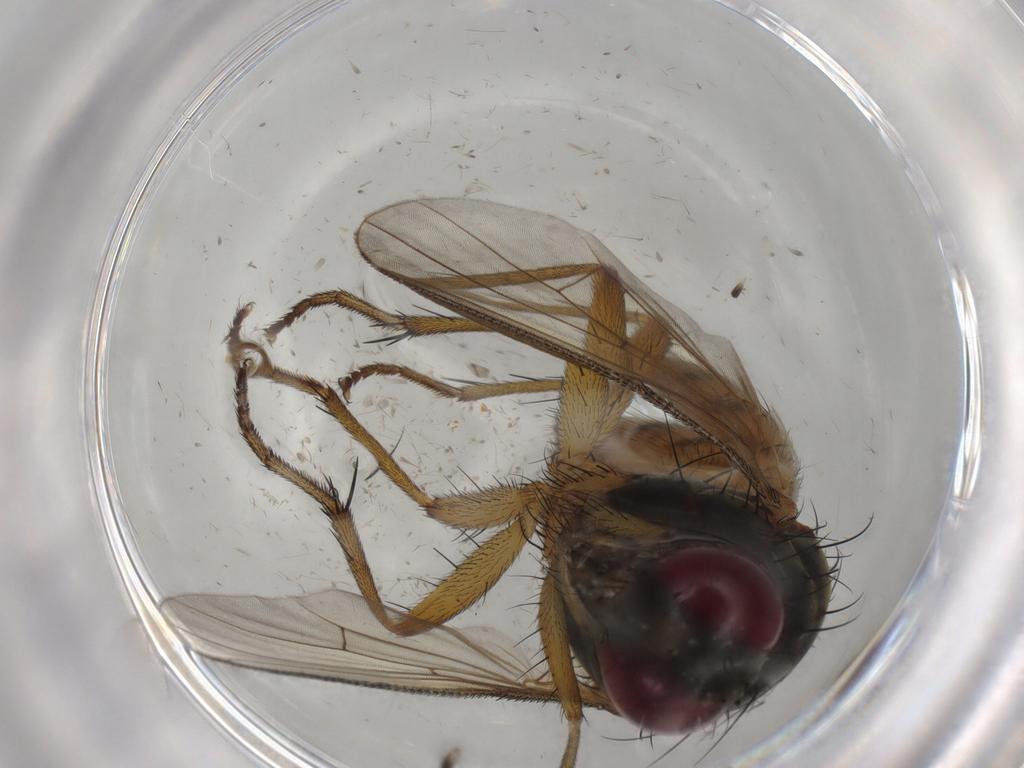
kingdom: Animalia
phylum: Arthropoda
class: Insecta
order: Diptera
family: Muscidae
